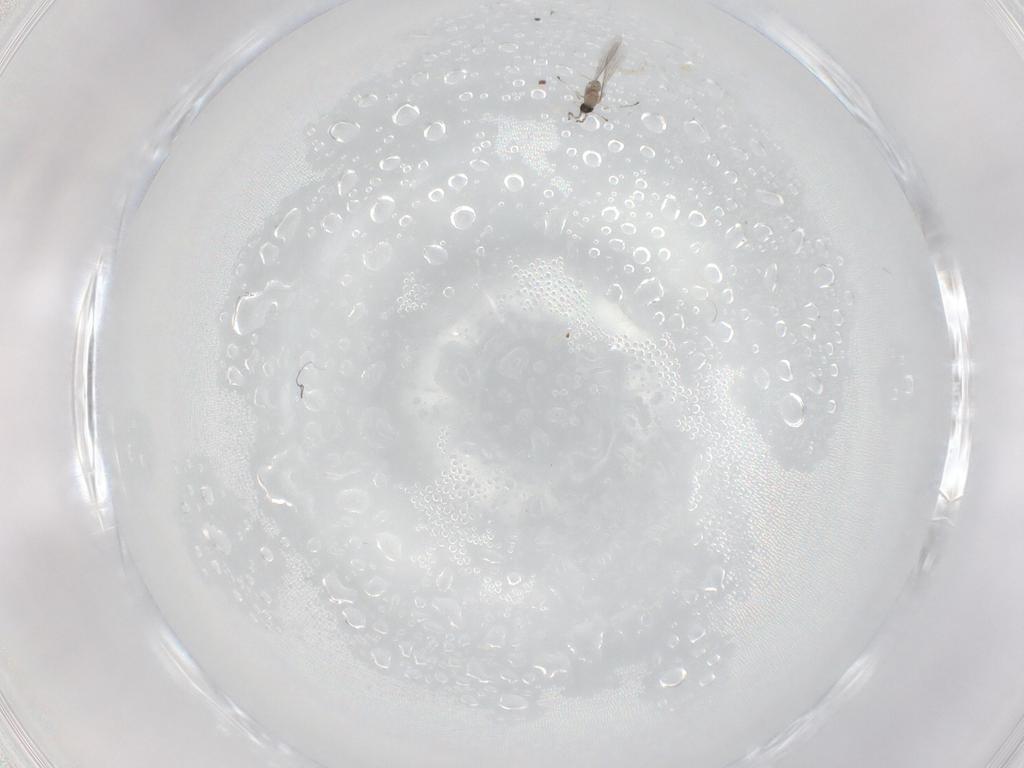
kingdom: Animalia
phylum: Arthropoda
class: Insecta
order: Diptera
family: Cecidomyiidae
